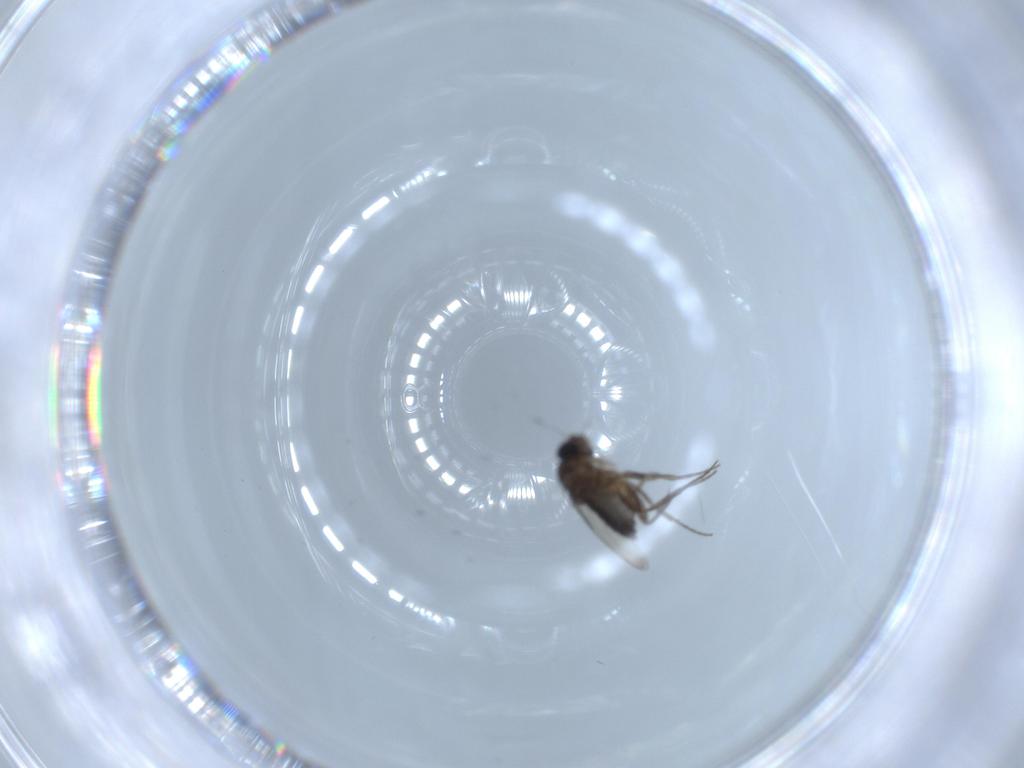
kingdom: Animalia
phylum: Arthropoda
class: Insecta
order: Diptera
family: Phoridae
